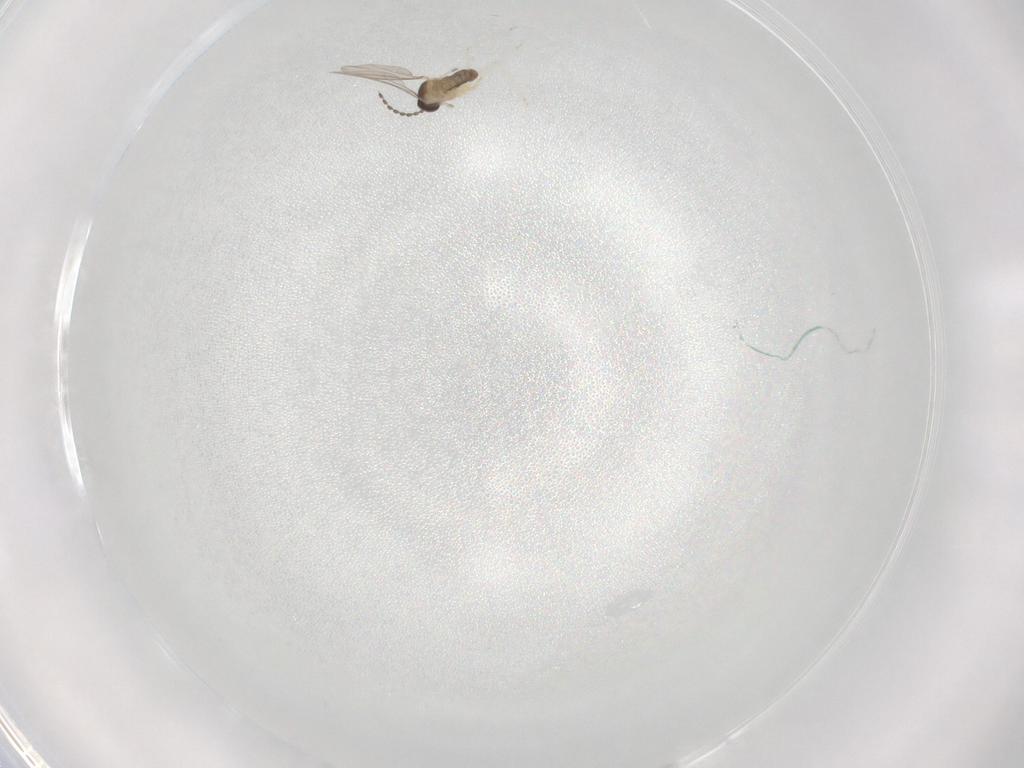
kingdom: Animalia
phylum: Arthropoda
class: Insecta
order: Diptera
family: Cecidomyiidae
